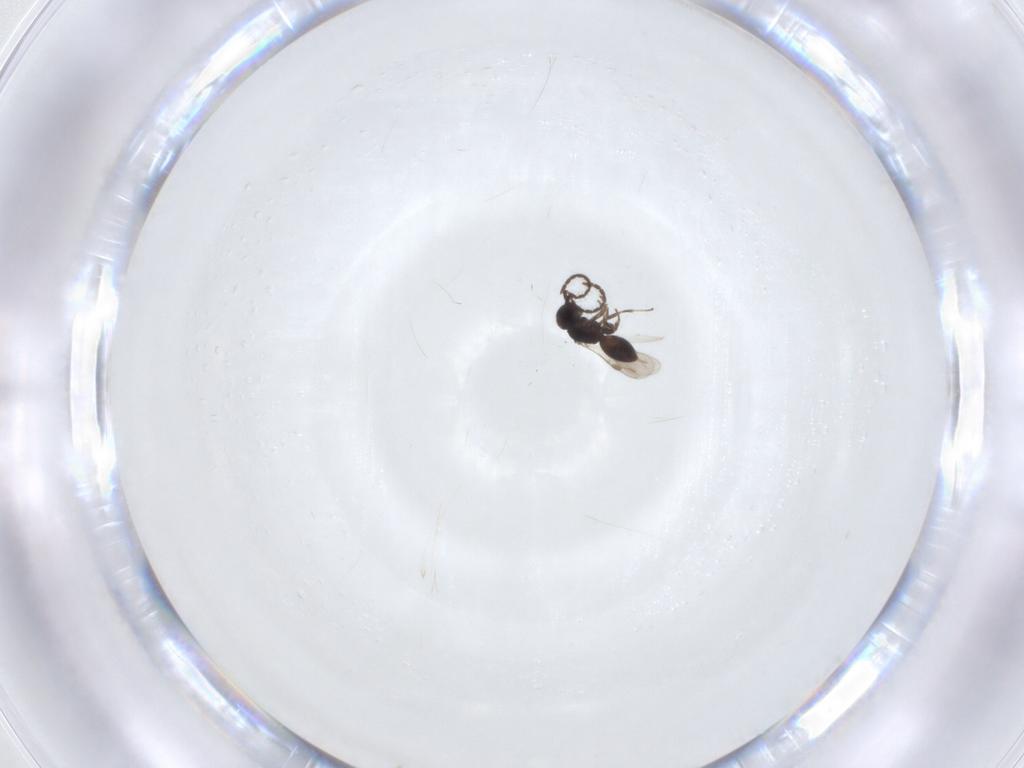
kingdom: Animalia
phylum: Arthropoda
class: Insecta
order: Hymenoptera
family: Megaspilidae
